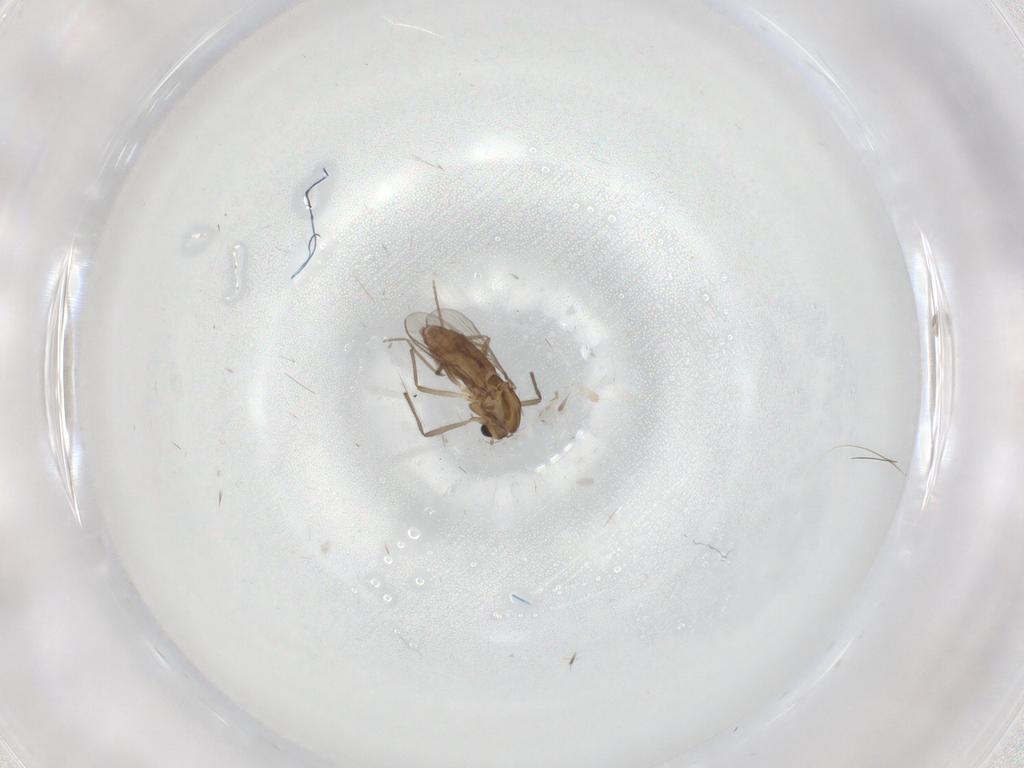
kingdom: Animalia
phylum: Arthropoda
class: Insecta
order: Diptera
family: Chironomidae
